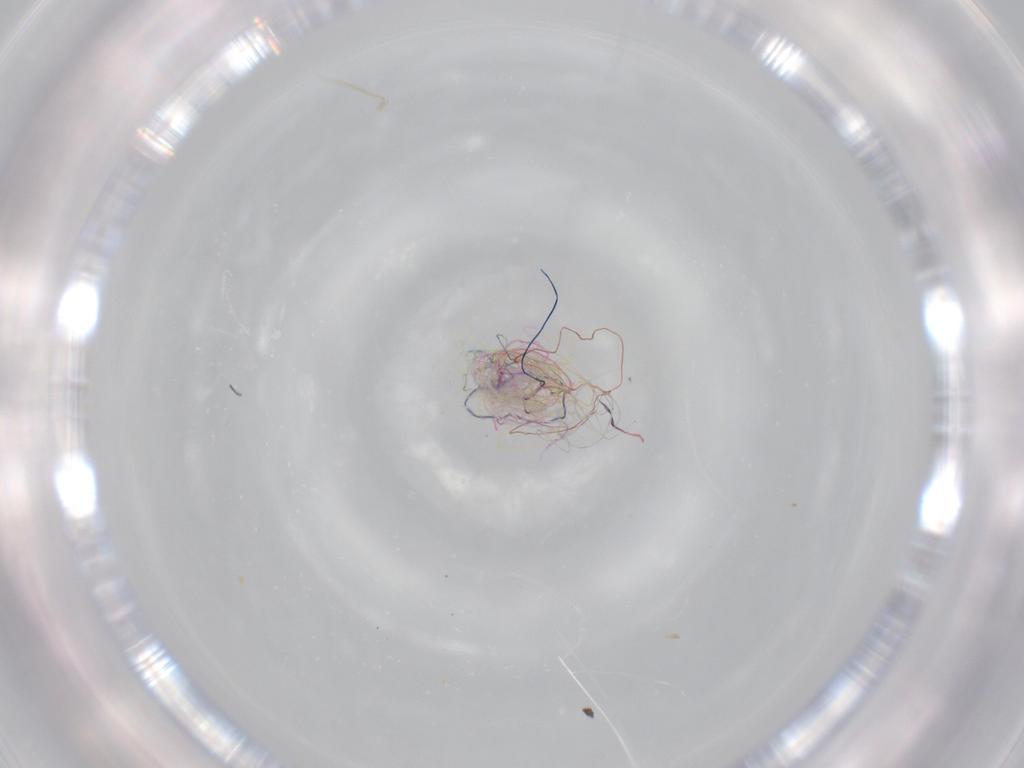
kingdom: Animalia
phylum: Arthropoda
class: Insecta
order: Diptera
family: Sciaridae
